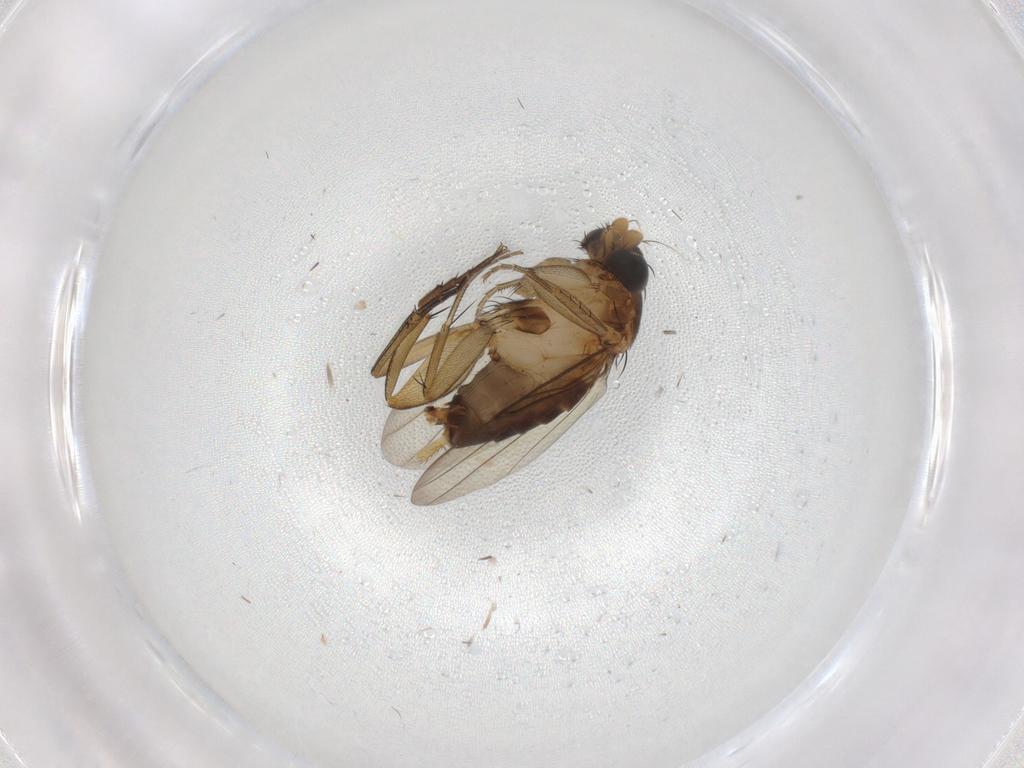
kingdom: Animalia
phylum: Arthropoda
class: Insecta
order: Diptera
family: Phoridae
